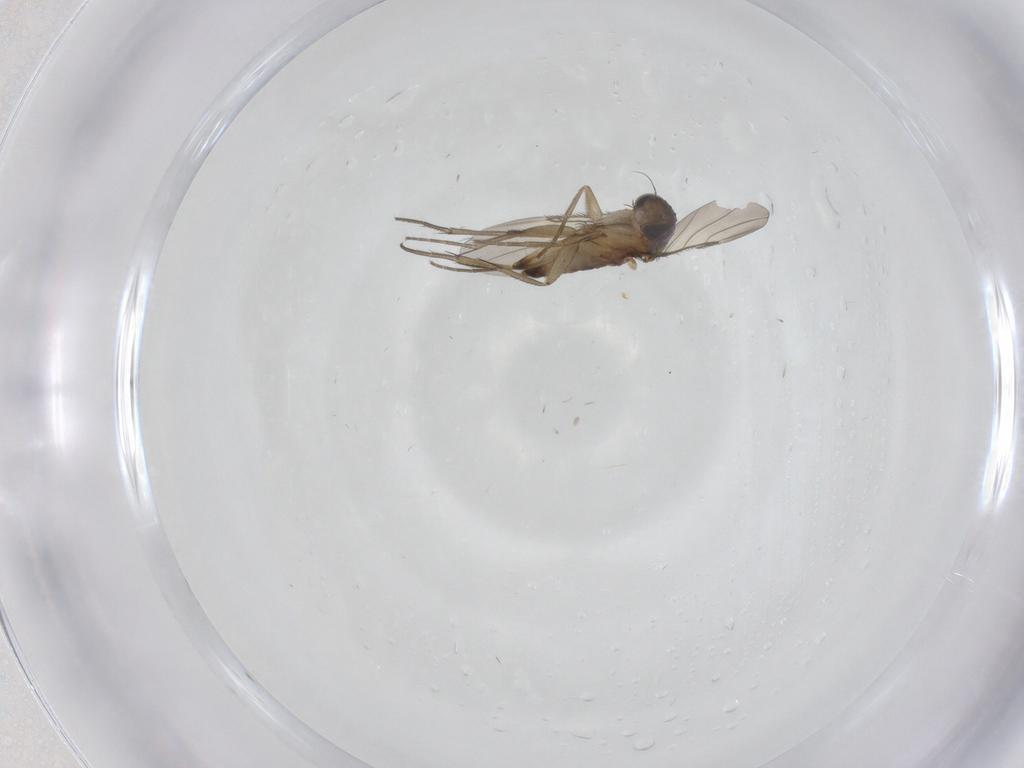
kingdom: Animalia
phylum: Arthropoda
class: Insecta
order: Diptera
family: Phoridae
